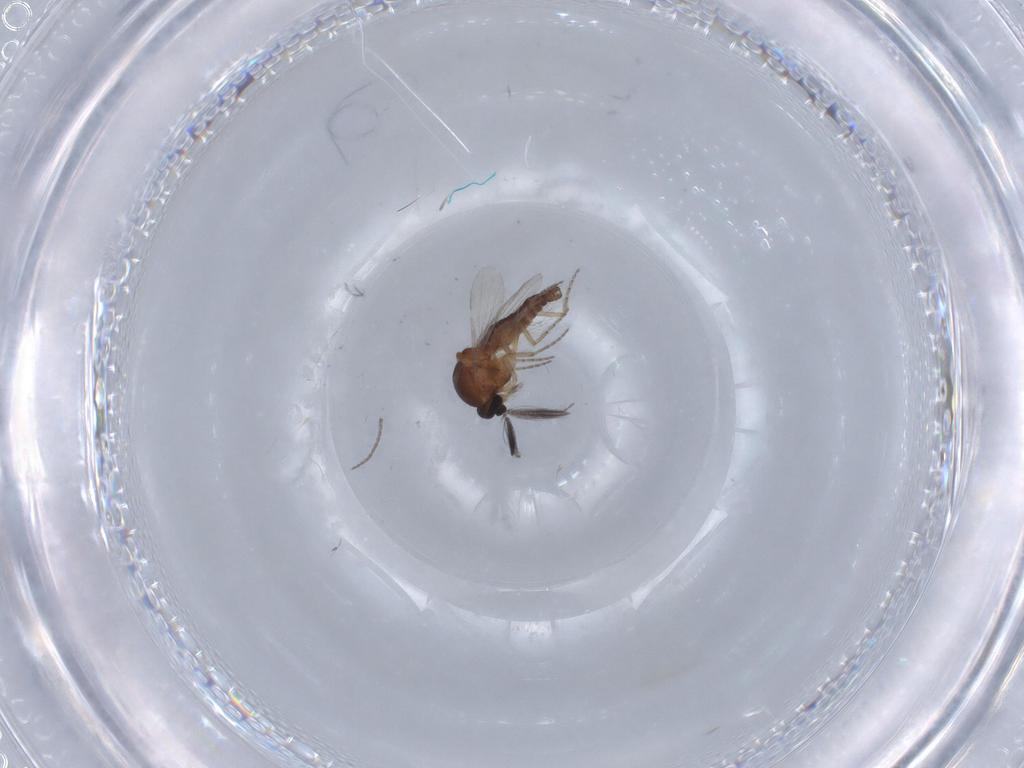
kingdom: Animalia
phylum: Arthropoda
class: Insecta
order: Diptera
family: Ceratopogonidae
